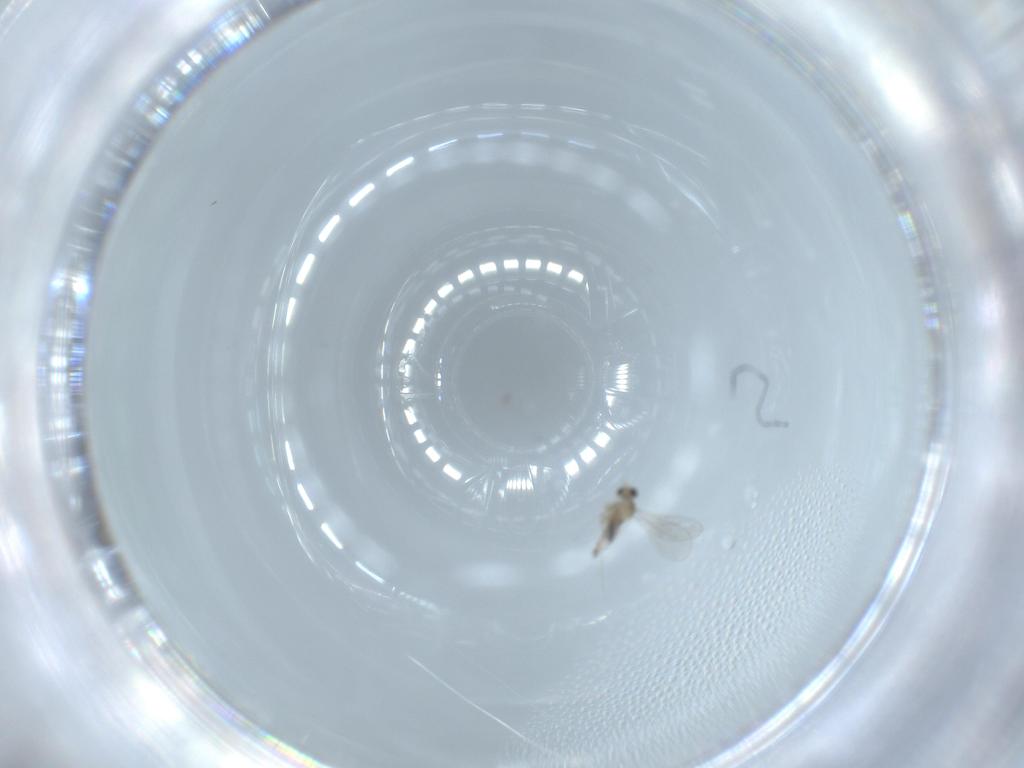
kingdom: Animalia
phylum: Arthropoda
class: Insecta
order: Diptera
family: Cecidomyiidae
